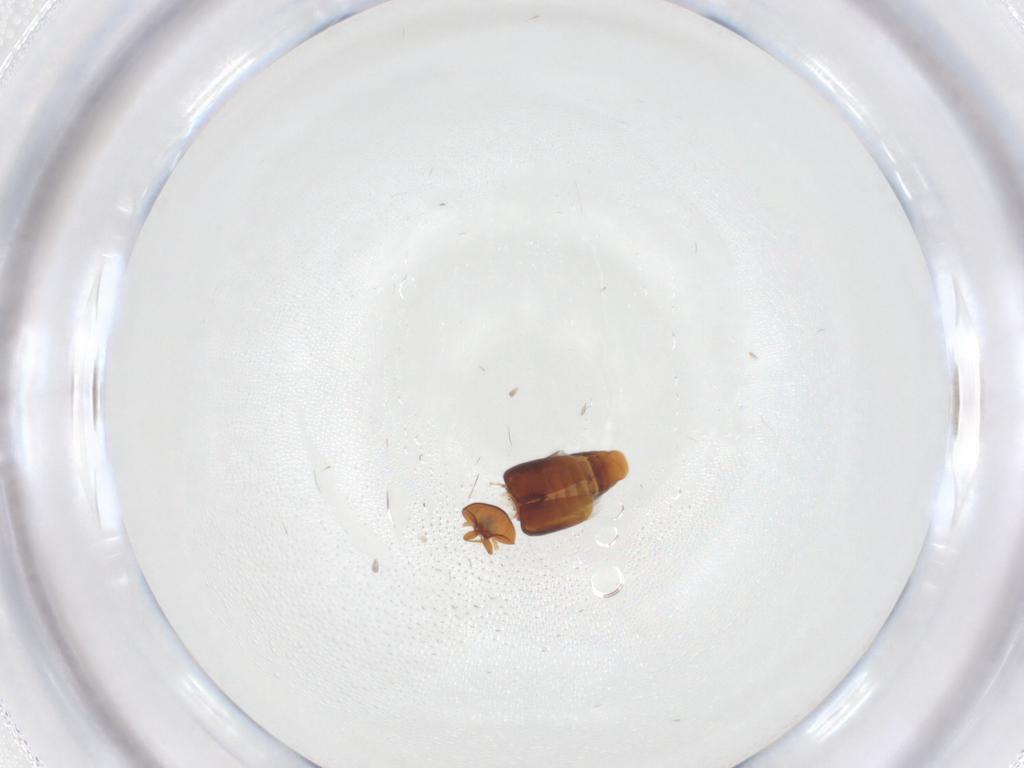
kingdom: Animalia
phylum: Arthropoda
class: Insecta
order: Coleoptera
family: Corylophidae
